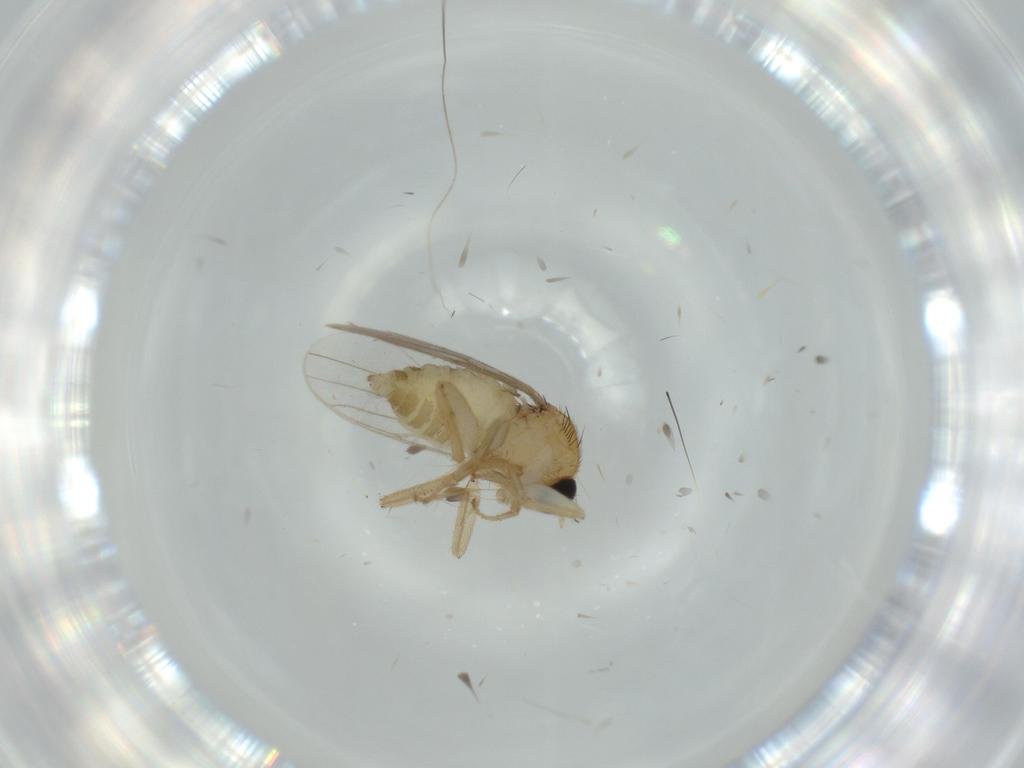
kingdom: Animalia
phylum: Arthropoda
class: Insecta
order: Diptera
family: Hybotidae
